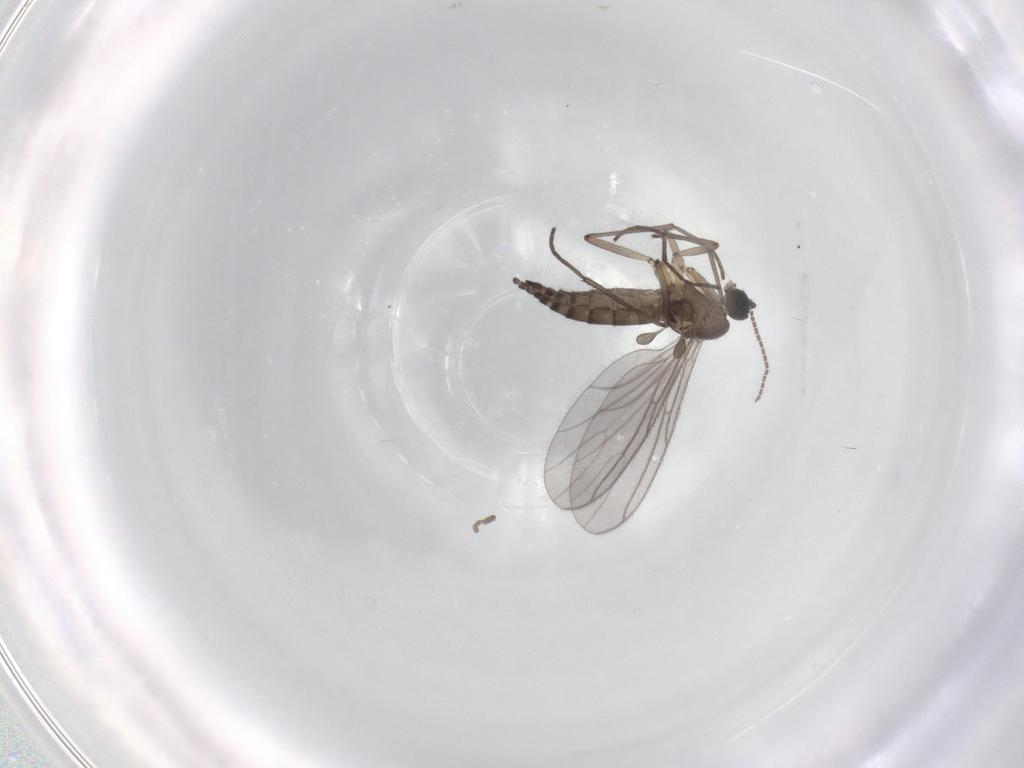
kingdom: Animalia
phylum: Arthropoda
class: Insecta
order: Diptera
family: Sciaridae
